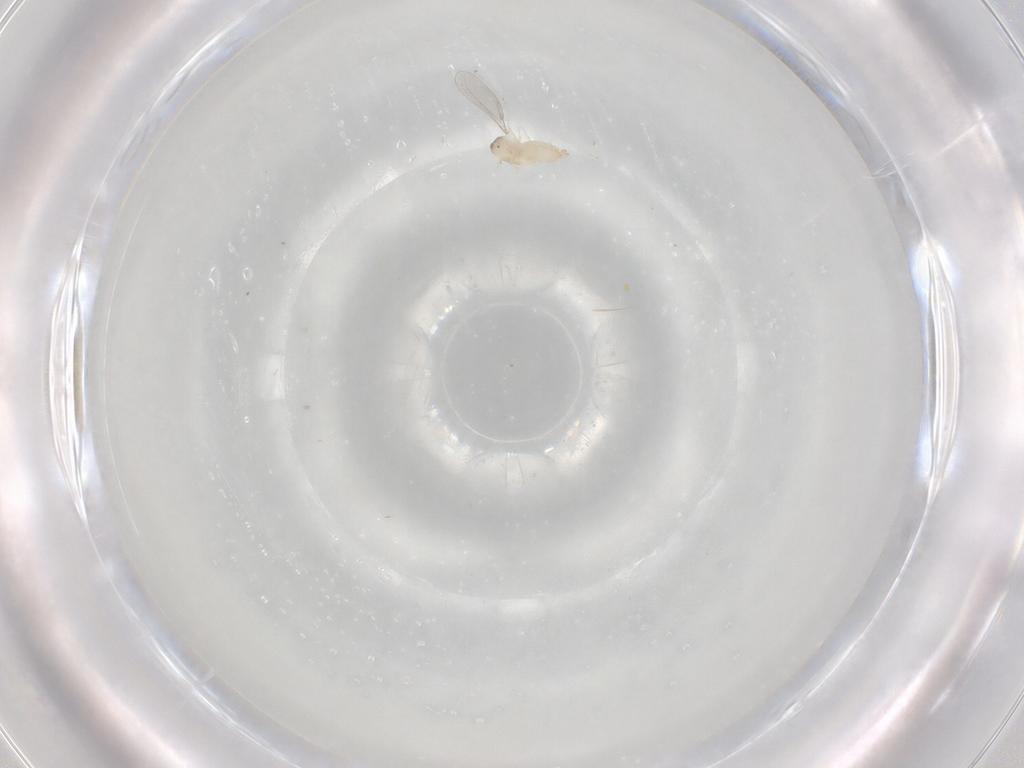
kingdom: Animalia
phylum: Arthropoda
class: Insecta
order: Diptera
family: Cecidomyiidae
